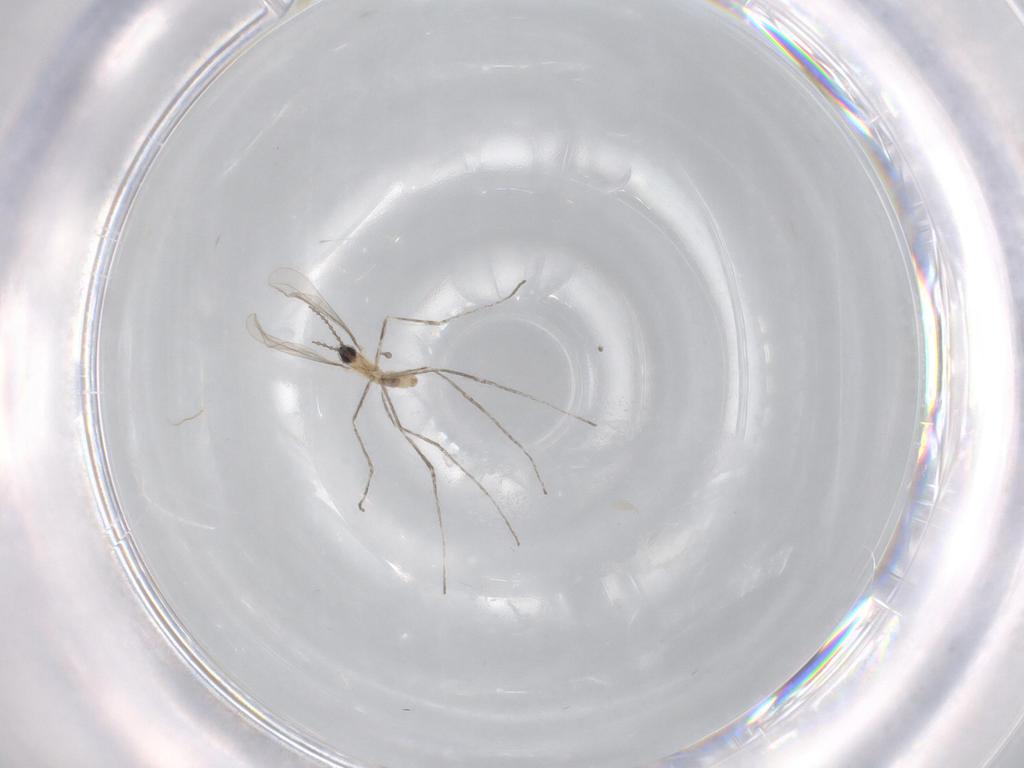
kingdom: Animalia
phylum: Arthropoda
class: Insecta
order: Diptera
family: Cecidomyiidae
